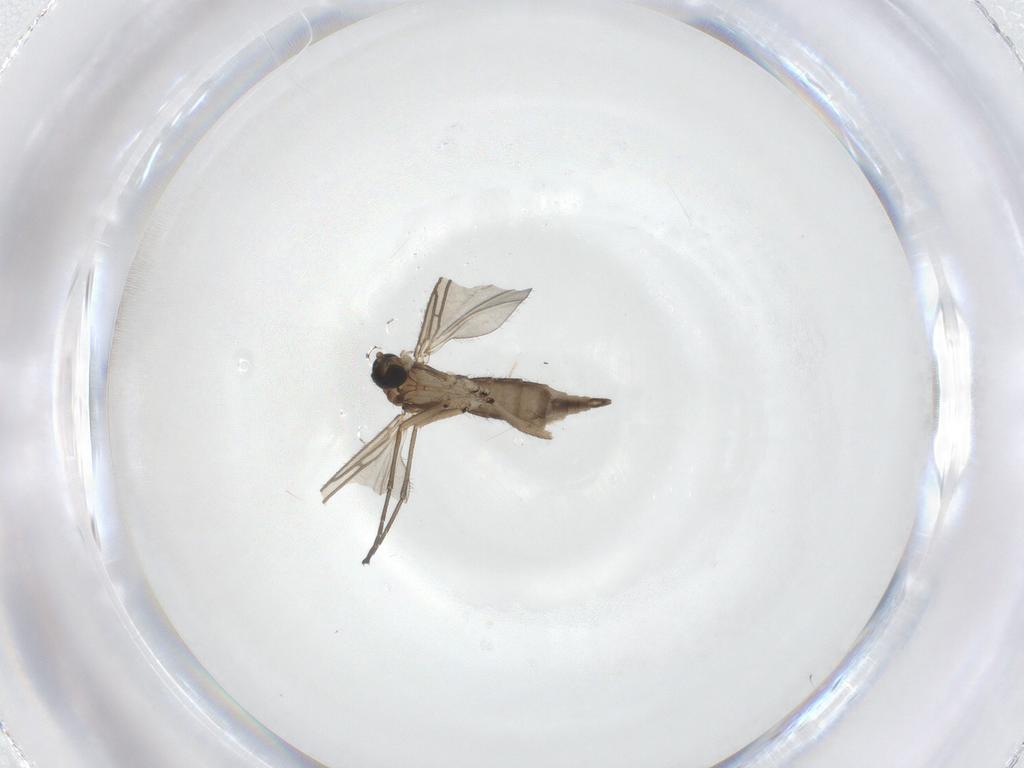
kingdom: Animalia
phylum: Arthropoda
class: Insecta
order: Diptera
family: Sciaridae
